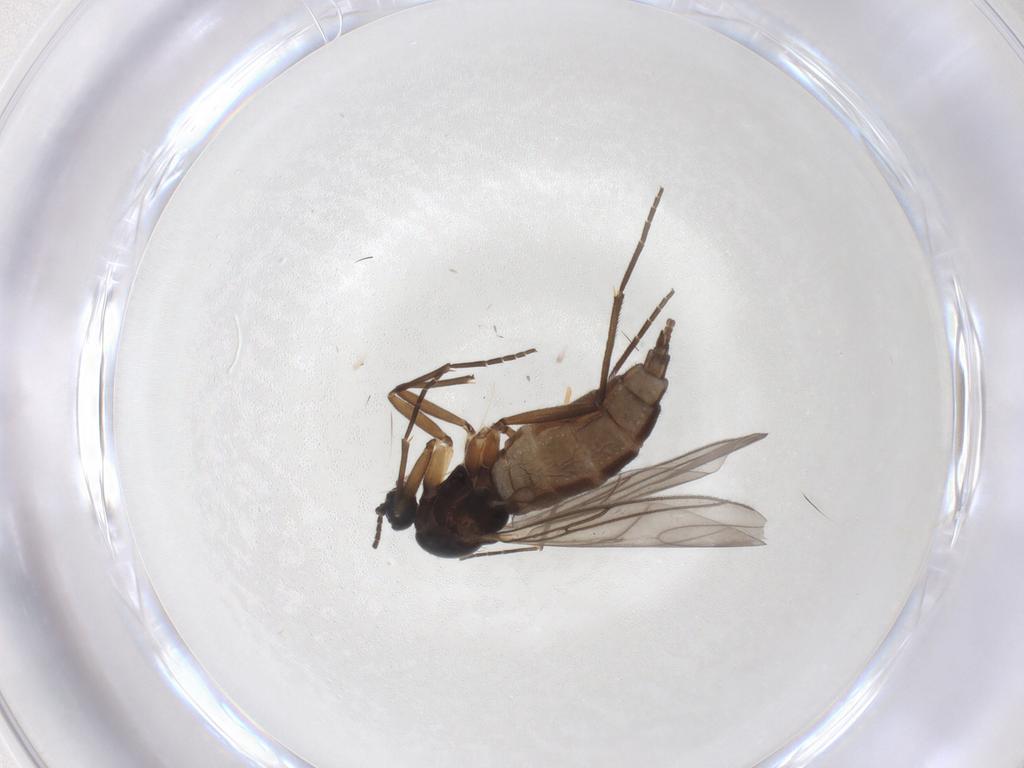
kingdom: Animalia
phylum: Arthropoda
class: Insecta
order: Diptera
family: Sciaridae
